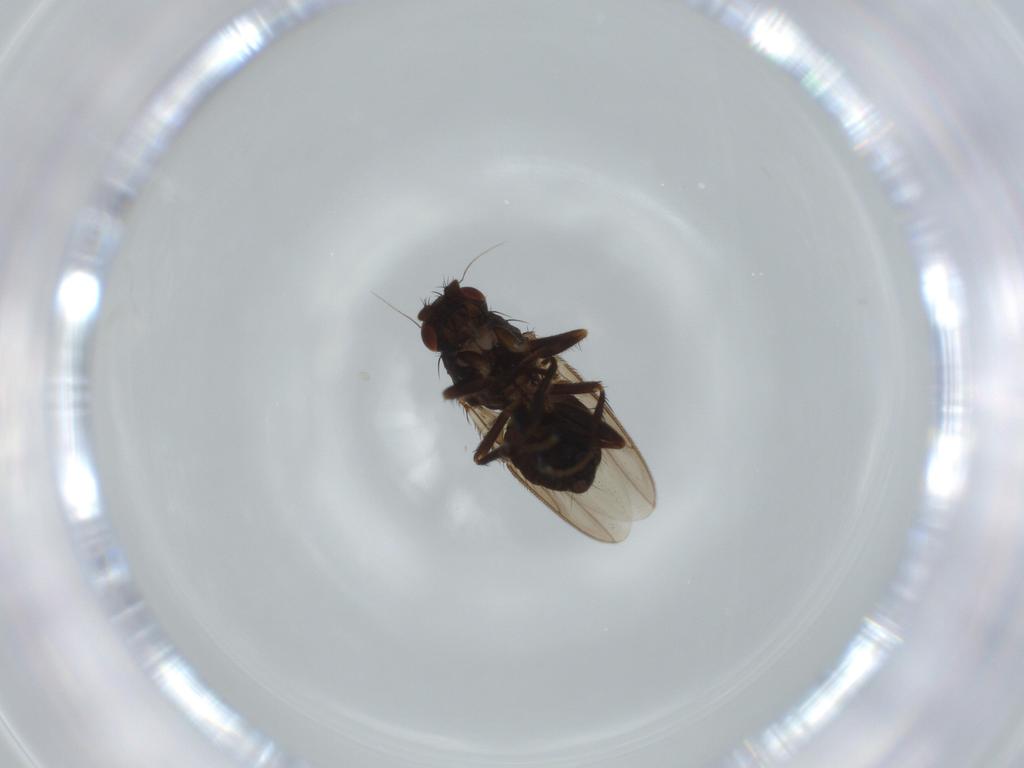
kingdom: Animalia
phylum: Arthropoda
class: Insecta
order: Diptera
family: Sphaeroceridae
